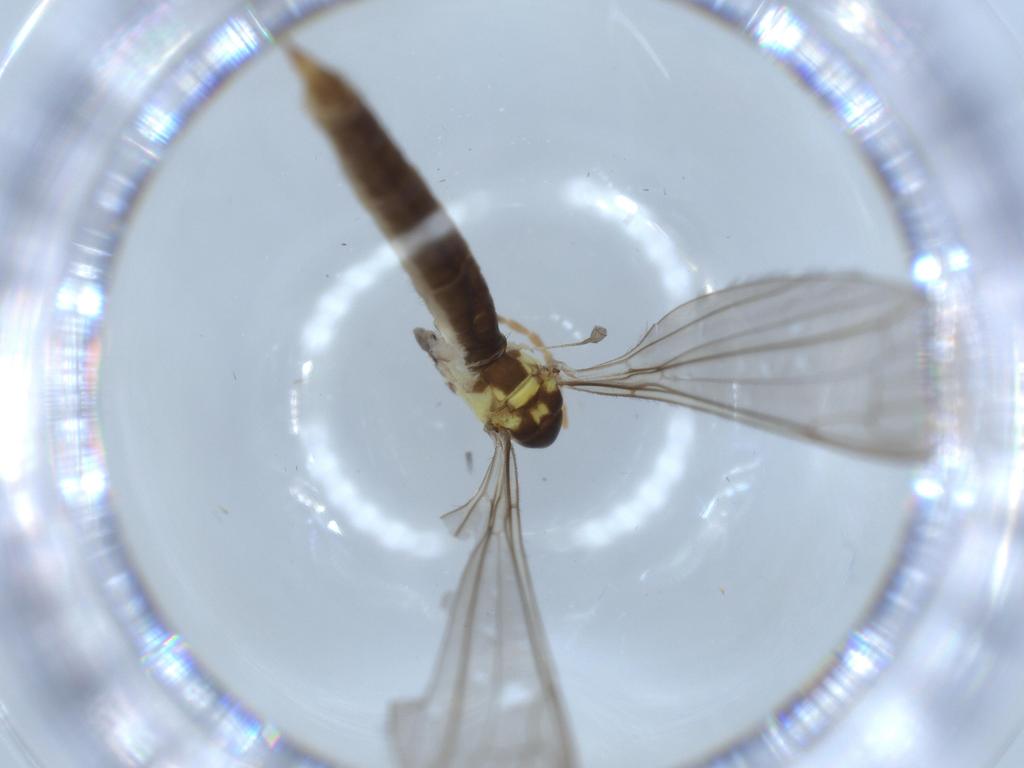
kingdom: Animalia
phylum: Arthropoda
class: Insecta
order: Diptera
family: Limoniidae
